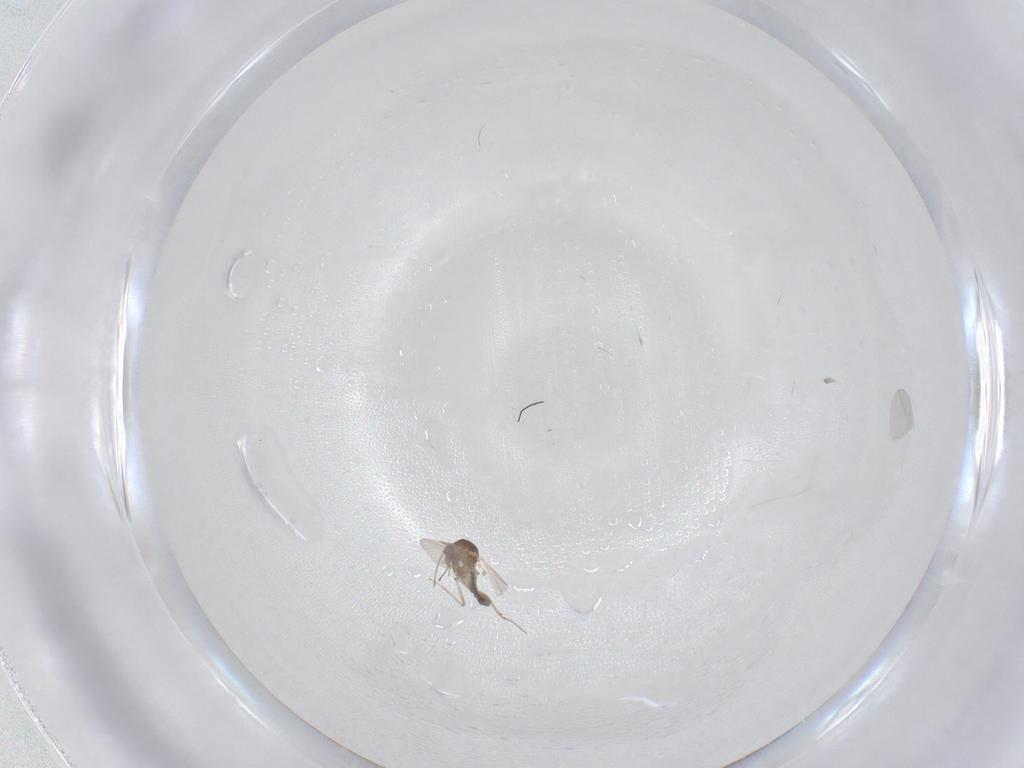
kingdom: Animalia
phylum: Arthropoda
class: Insecta
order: Diptera
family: Ceratopogonidae
